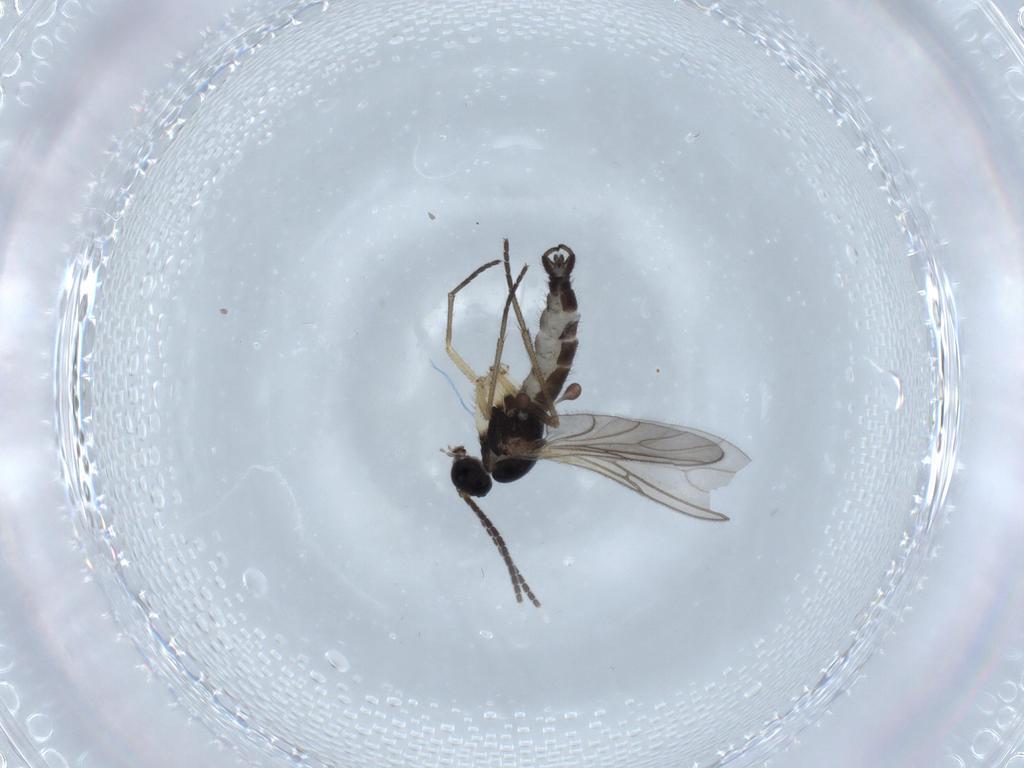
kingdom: Animalia
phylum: Arthropoda
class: Insecta
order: Diptera
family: Sciaridae
